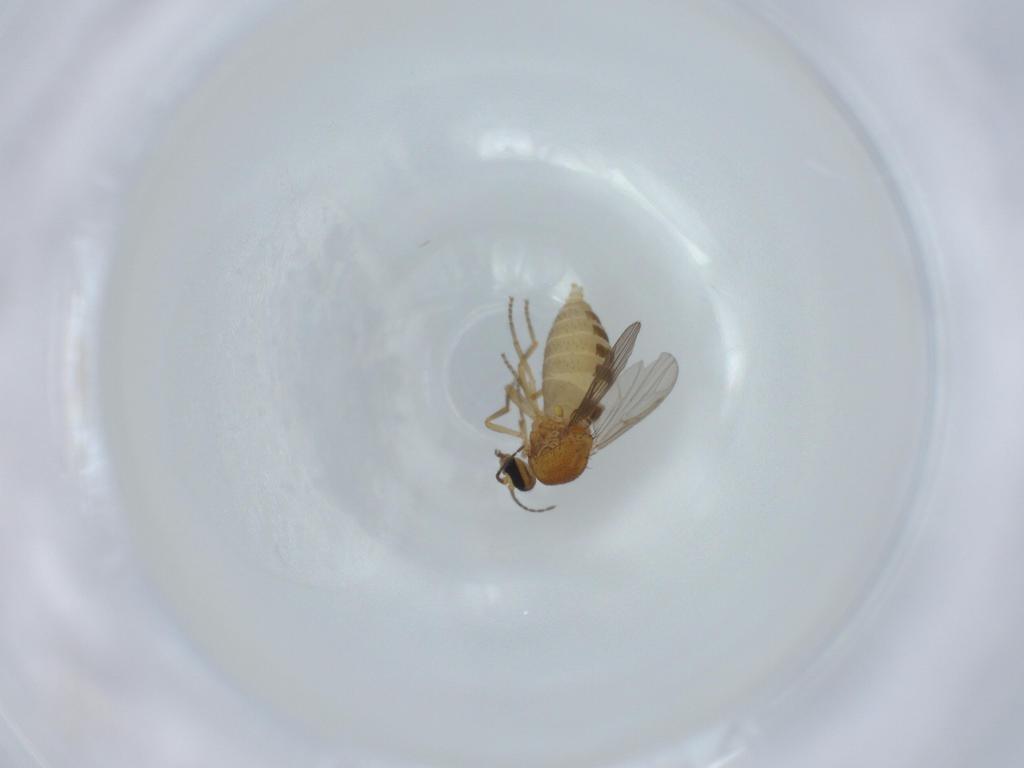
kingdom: Animalia
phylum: Arthropoda
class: Insecta
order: Diptera
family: Ceratopogonidae
